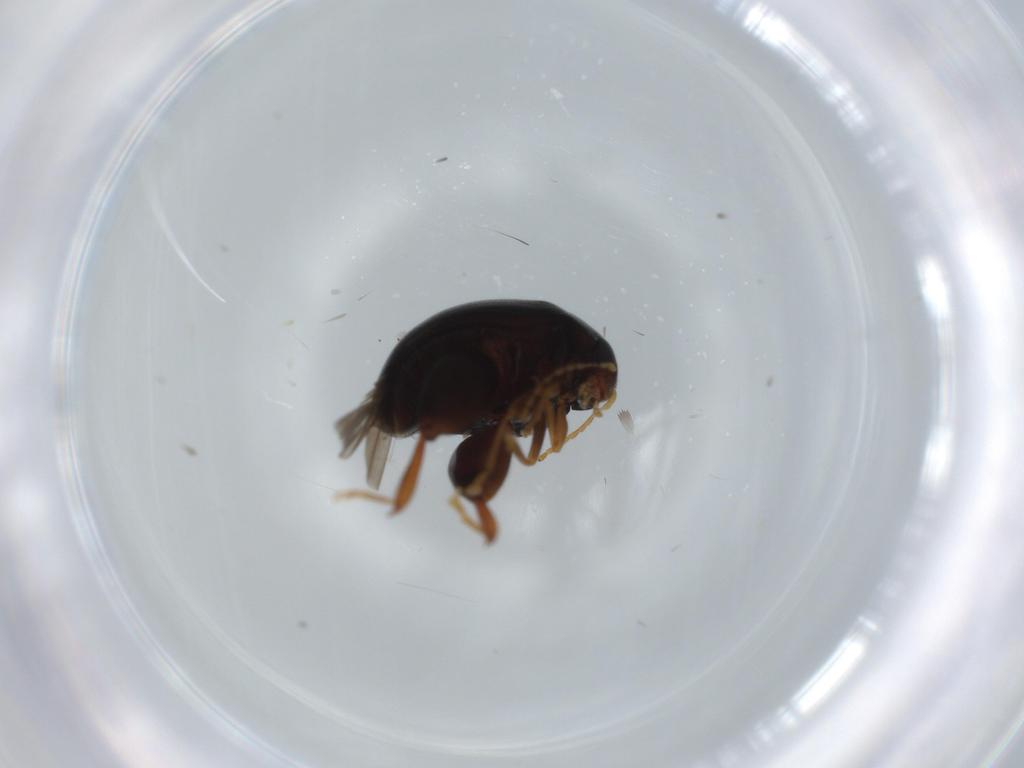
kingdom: Animalia
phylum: Arthropoda
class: Insecta
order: Coleoptera
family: Chrysomelidae
